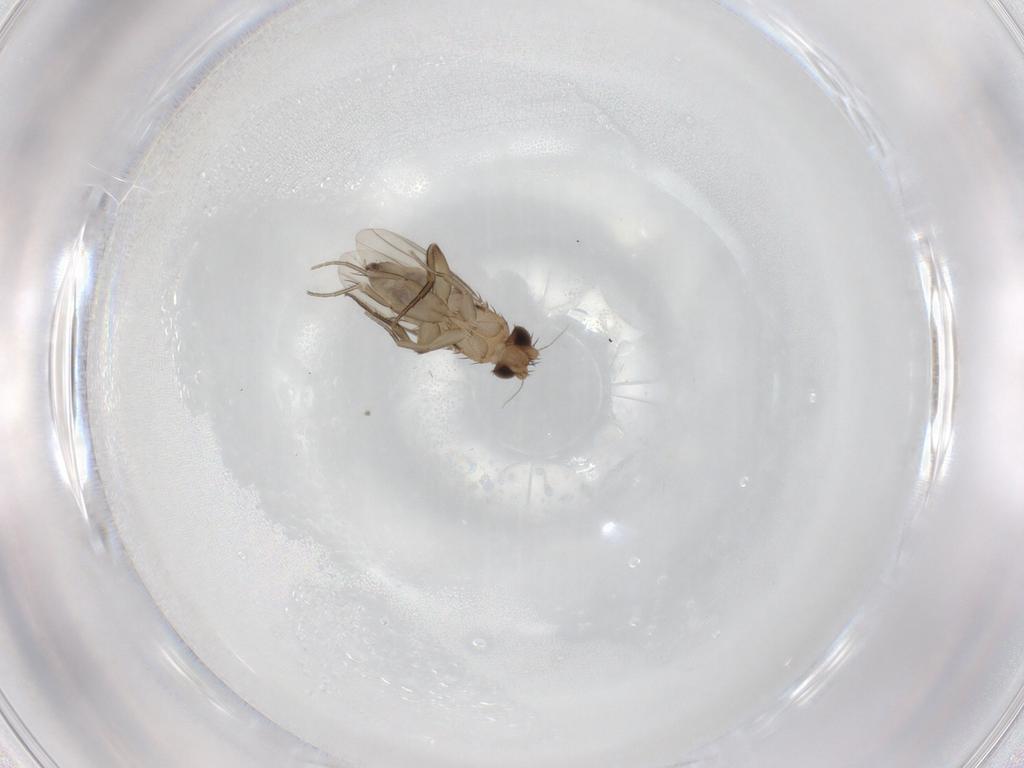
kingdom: Animalia
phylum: Arthropoda
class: Insecta
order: Diptera
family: Phoridae
